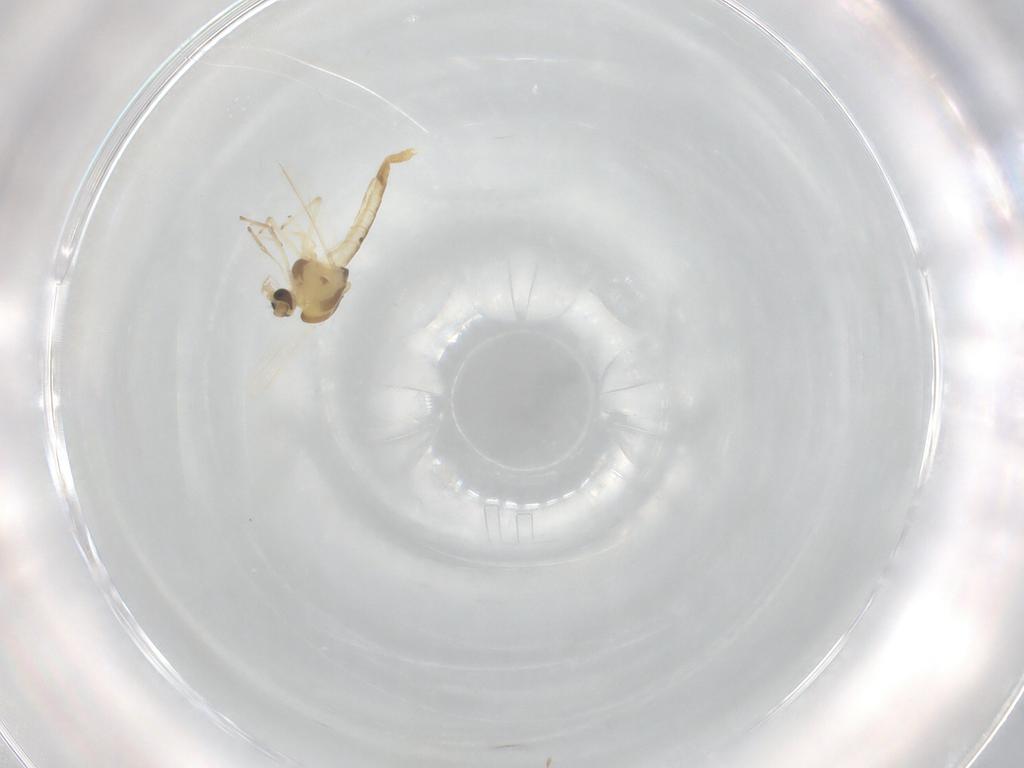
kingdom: Animalia
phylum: Arthropoda
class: Insecta
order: Diptera
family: Chironomidae
